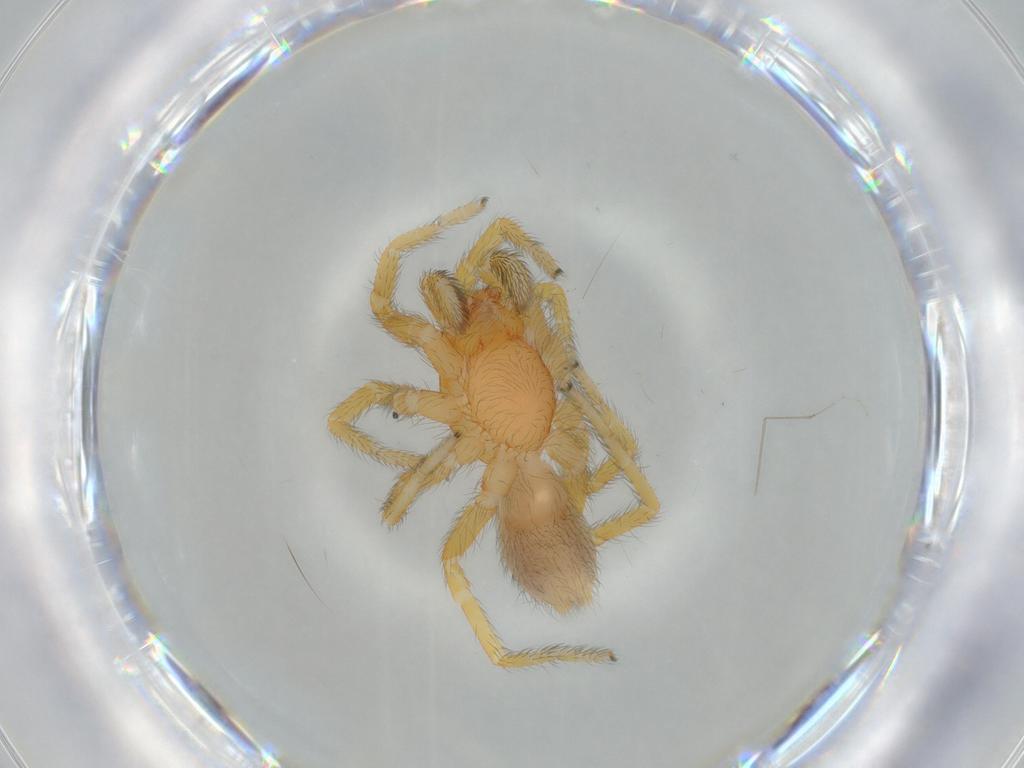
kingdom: Animalia
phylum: Arthropoda
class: Arachnida
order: Araneae
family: Caponiidae
